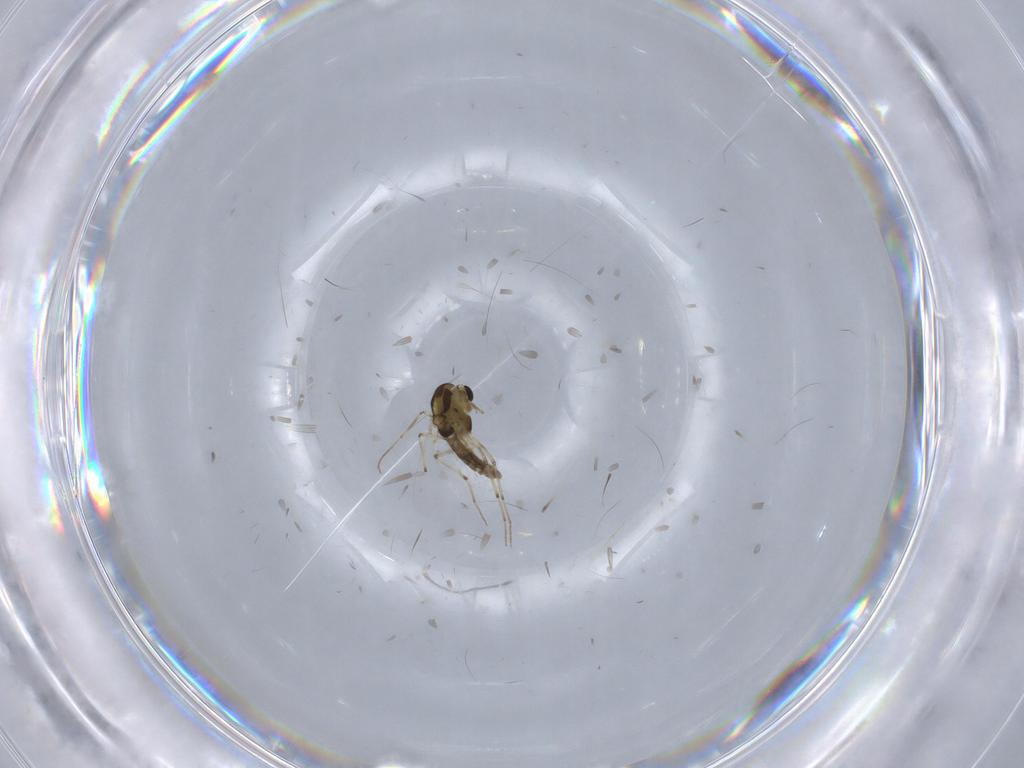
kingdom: Animalia
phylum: Arthropoda
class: Insecta
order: Diptera
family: Chironomidae
